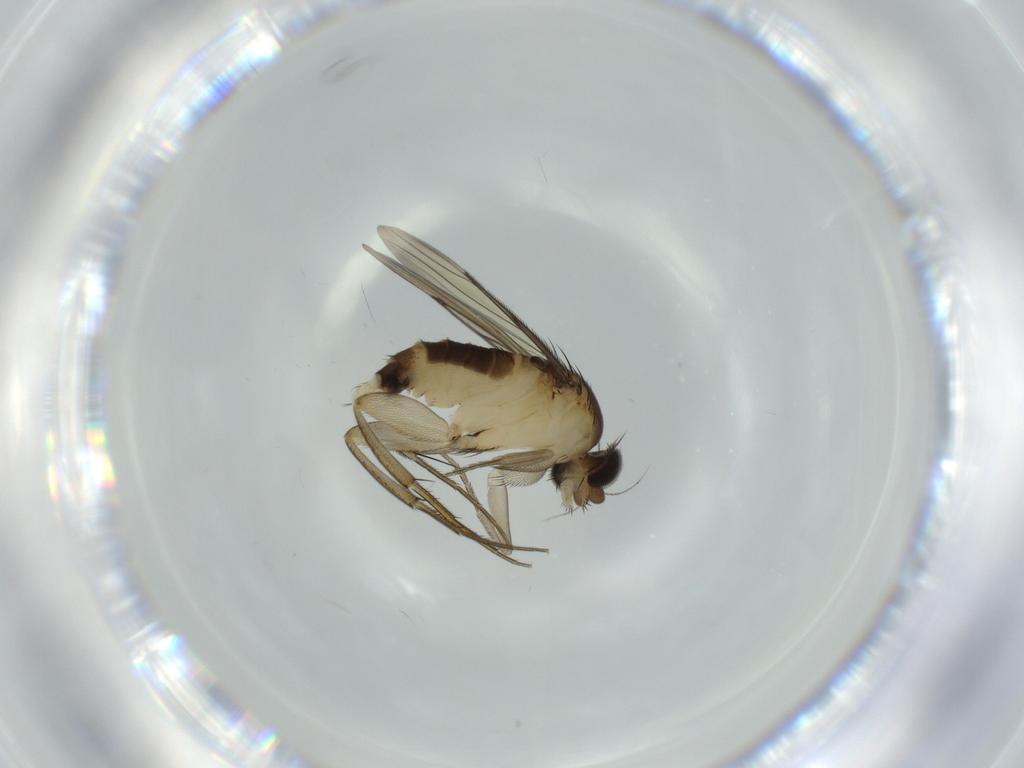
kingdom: Animalia
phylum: Arthropoda
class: Insecta
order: Diptera
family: Phoridae
